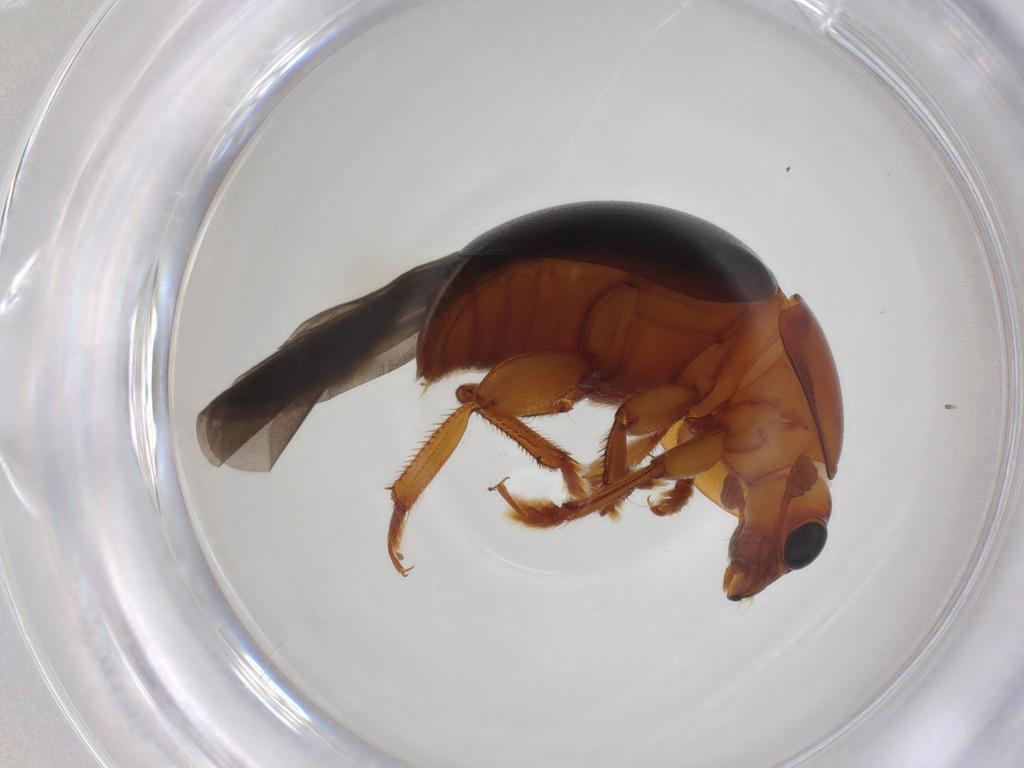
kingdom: Animalia
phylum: Arthropoda
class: Insecta
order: Coleoptera
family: Nitidulidae
